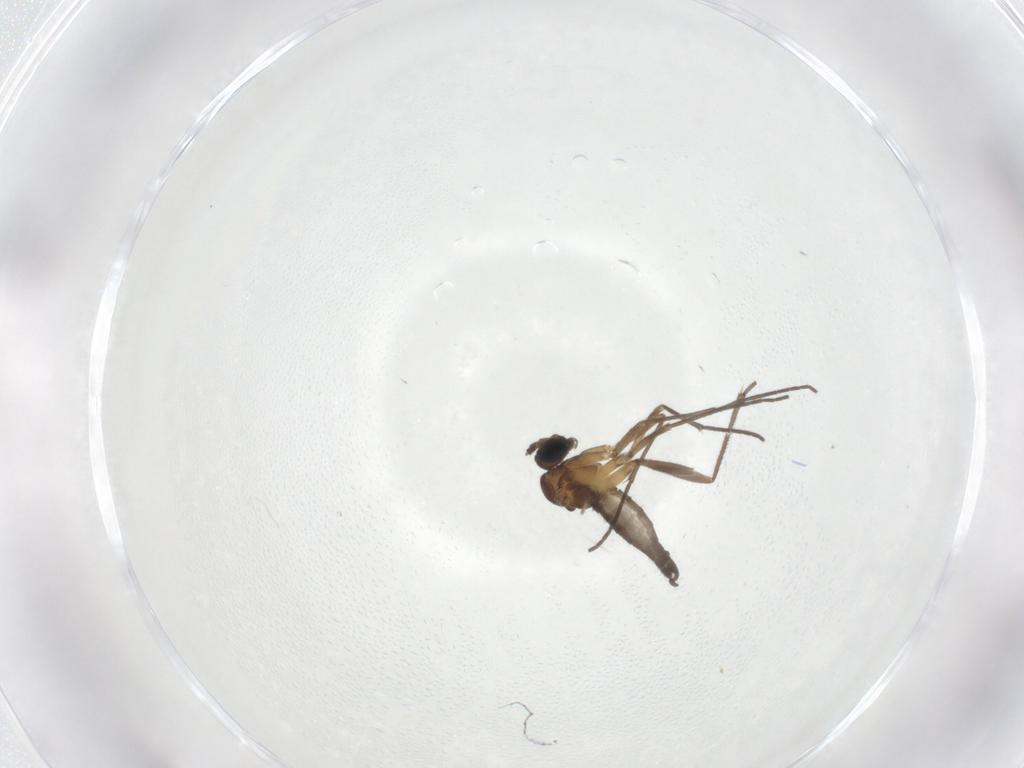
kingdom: Animalia
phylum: Arthropoda
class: Insecta
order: Diptera
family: Sciaridae
